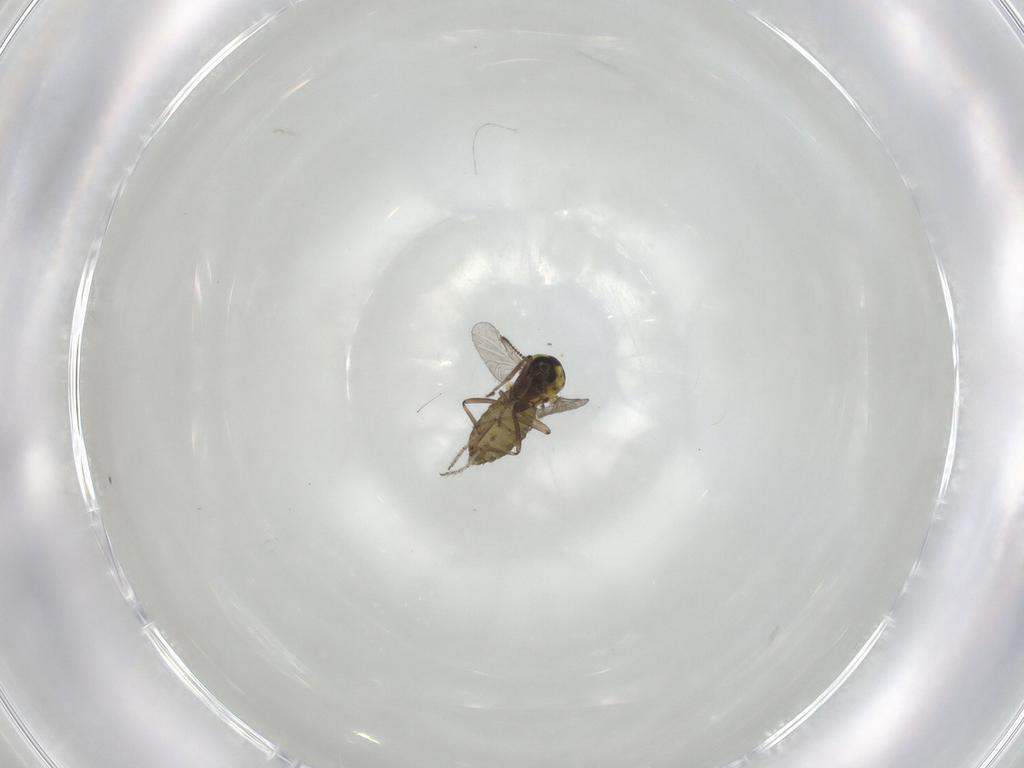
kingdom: Animalia
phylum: Arthropoda
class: Insecta
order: Diptera
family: Ceratopogonidae
